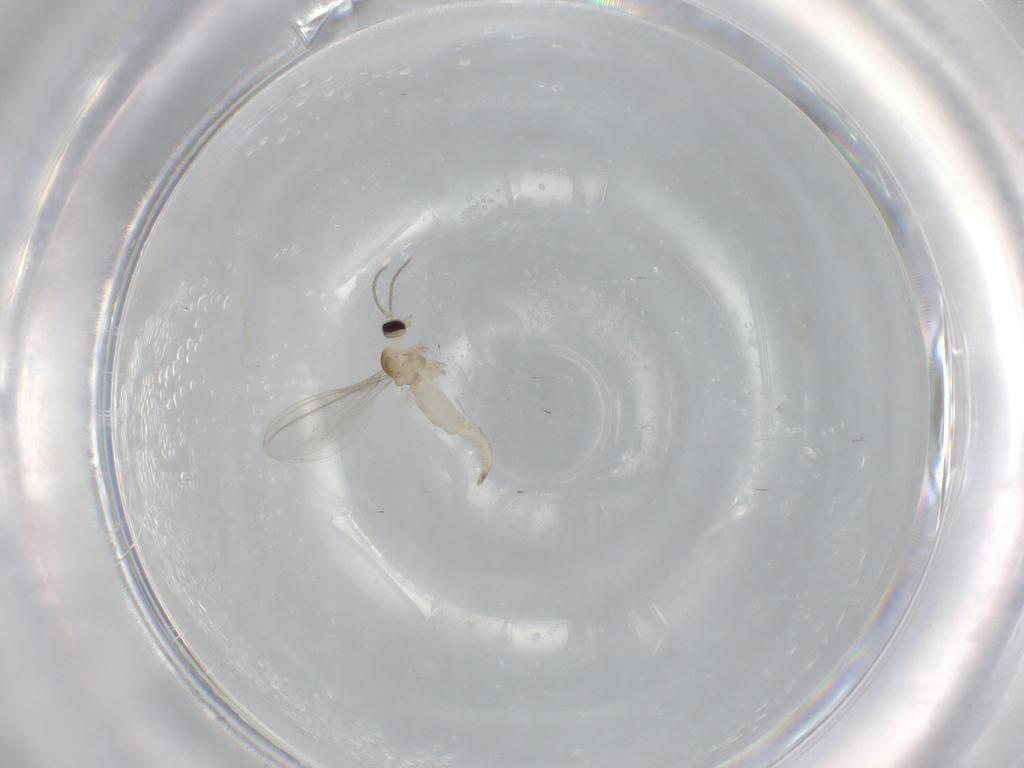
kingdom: Animalia
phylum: Arthropoda
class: Insecta
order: Diptera
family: Cecidomyiidae
